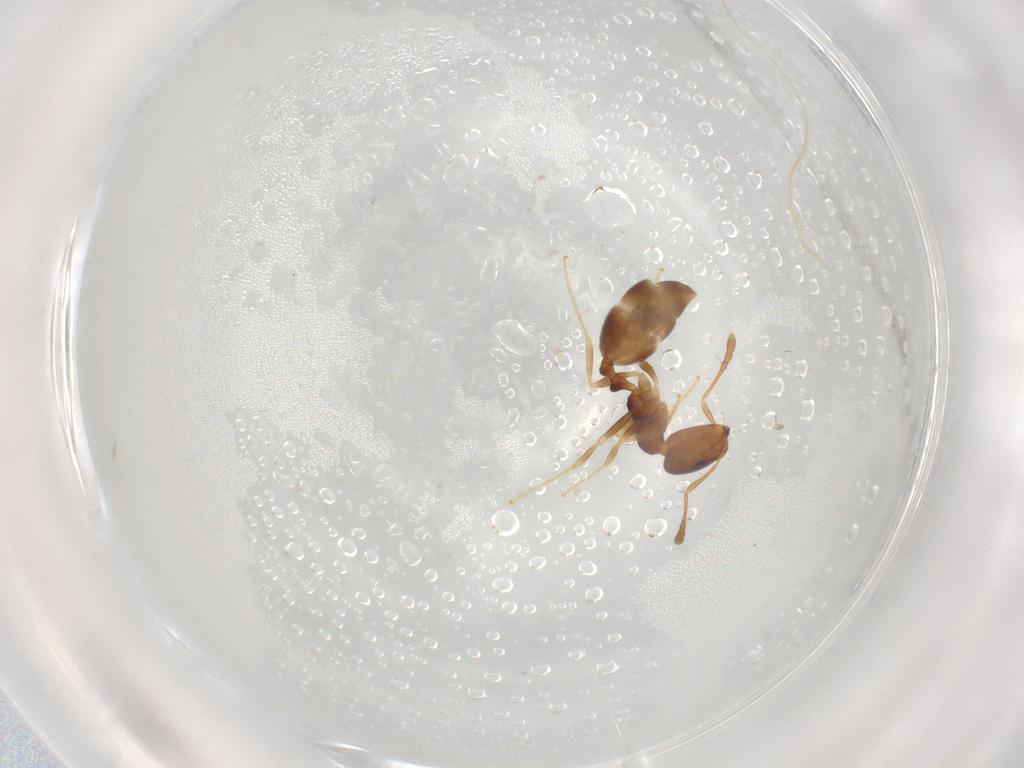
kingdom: Animalia
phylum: Arthropoda
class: Insecta
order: Hymenoptera
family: Formicidae
